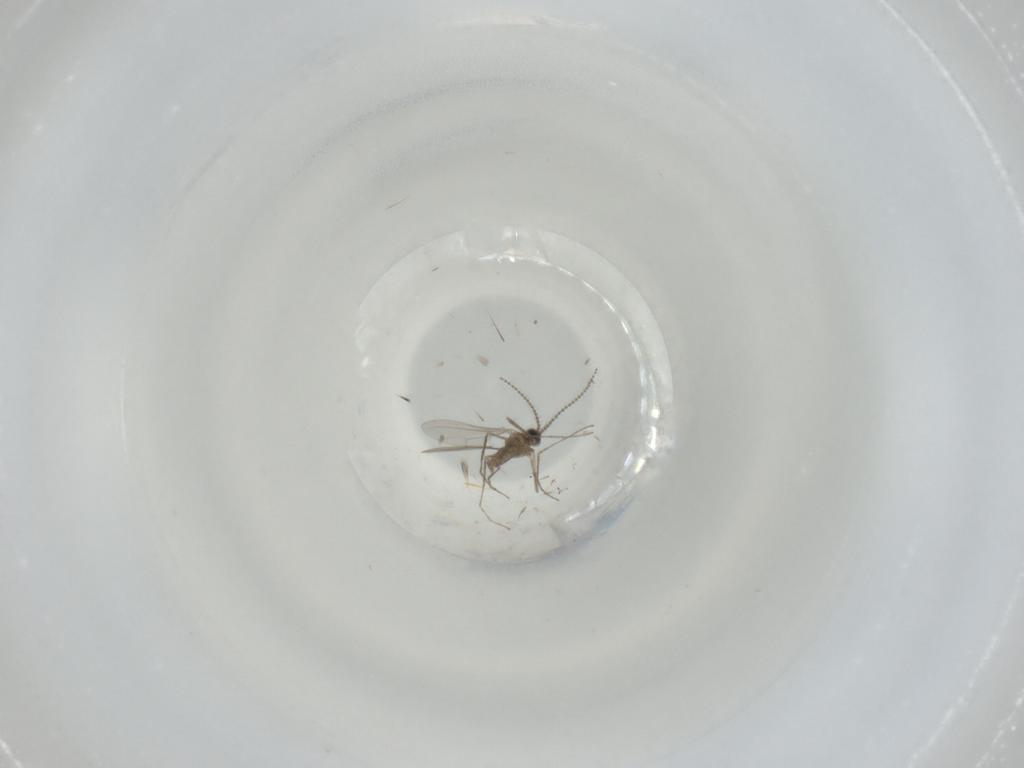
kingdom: Animalia
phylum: Arthropoda
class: Insecta
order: Diptera
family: Cecidomyiidae
